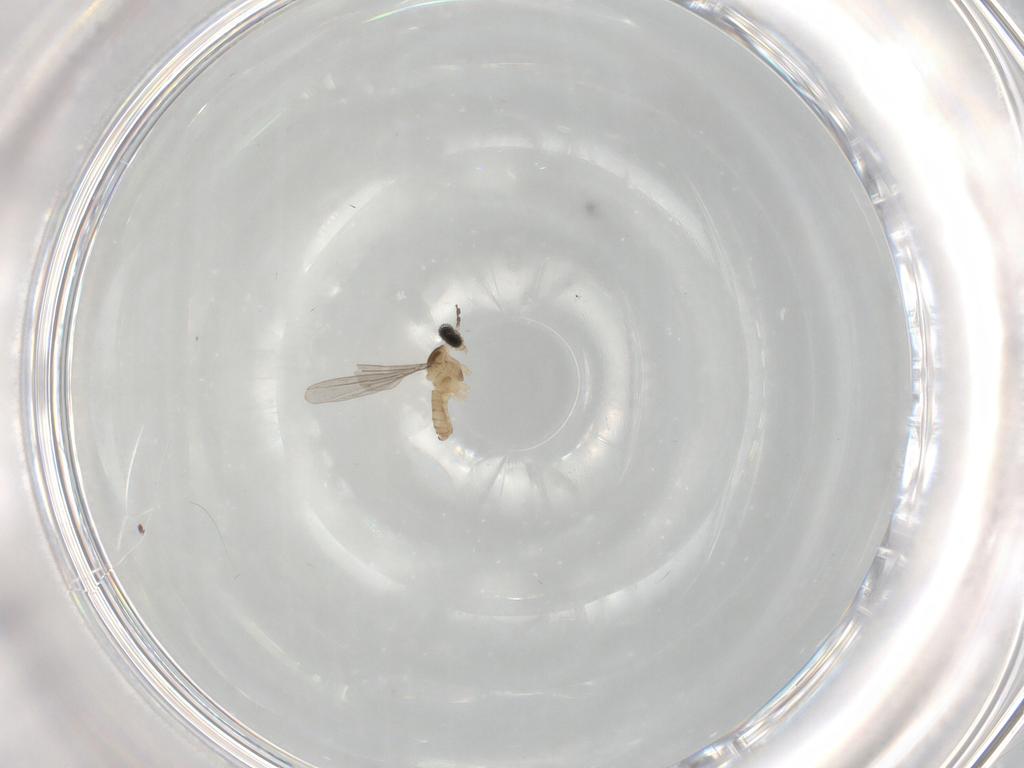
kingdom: Animalia
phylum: Arthropoda
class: Insecta
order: Diptera
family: Cecidomyiidae
